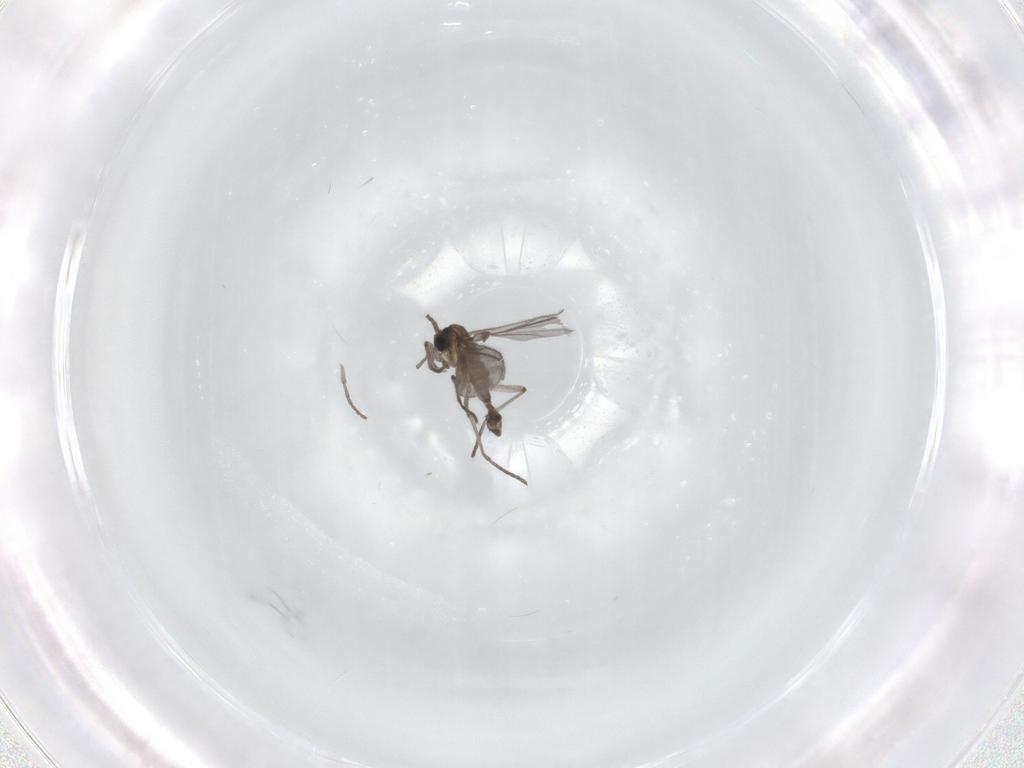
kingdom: Animalia
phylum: Arthropoda
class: Insecta
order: Diptera
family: Sciaridae
